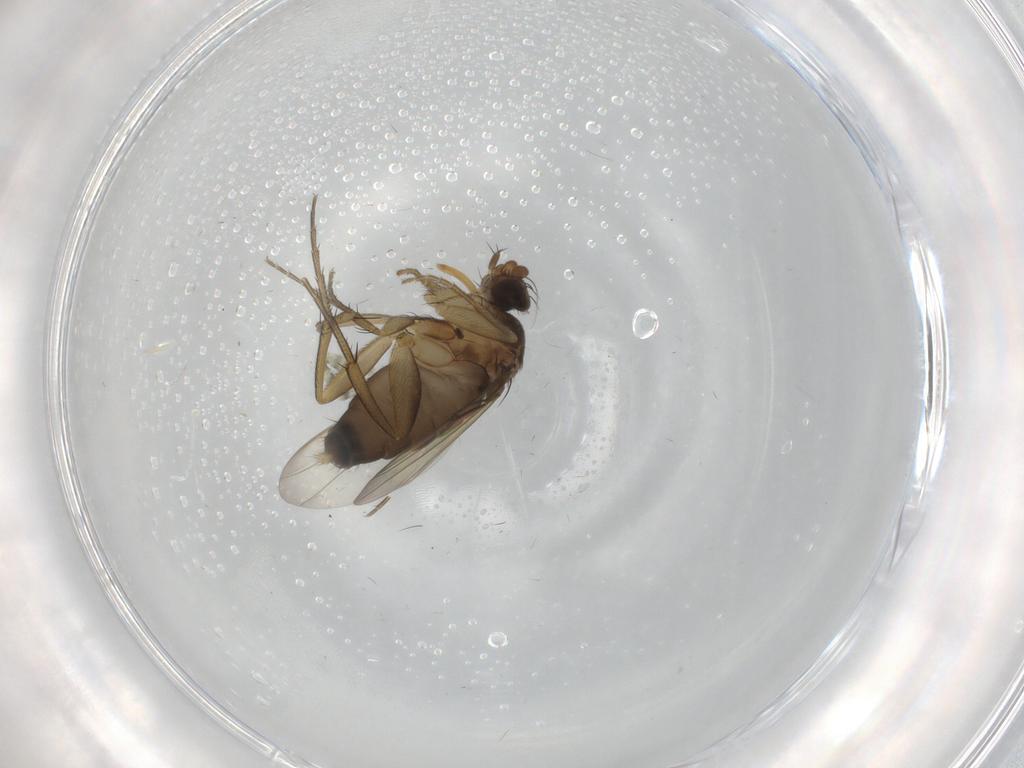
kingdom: Animalia
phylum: Arthropoda
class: Insecta
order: Diptera
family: Phoridae
